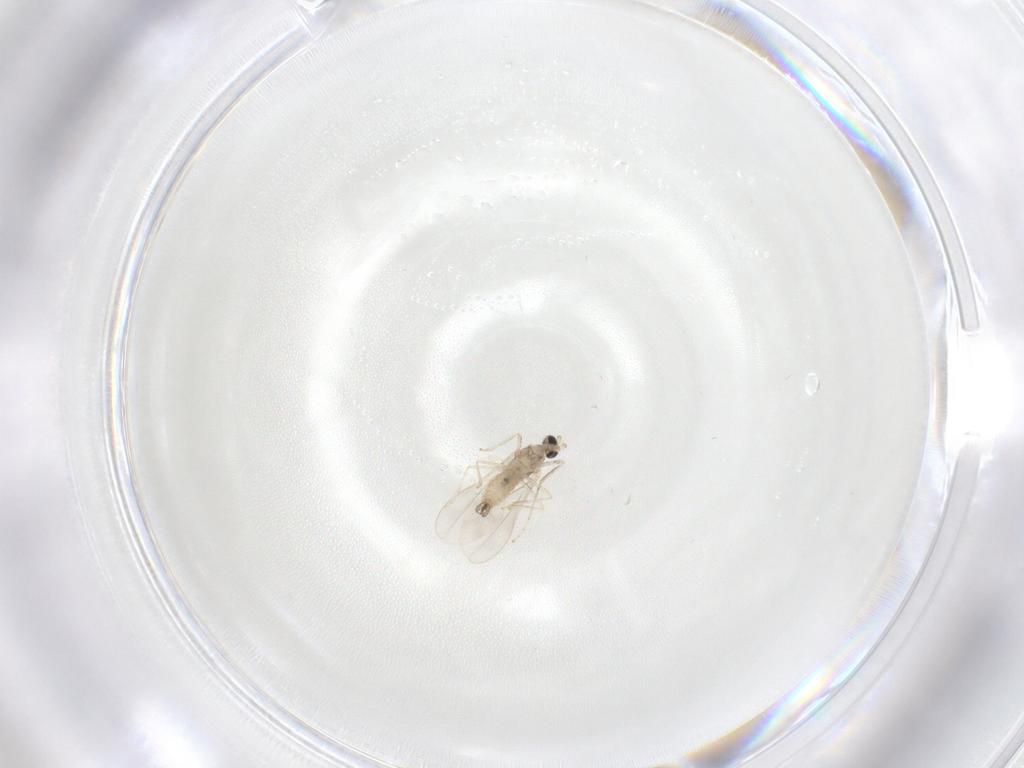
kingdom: Animalia
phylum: Arthropoda
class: Insecta
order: Diptera
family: Cecidomyiidae
